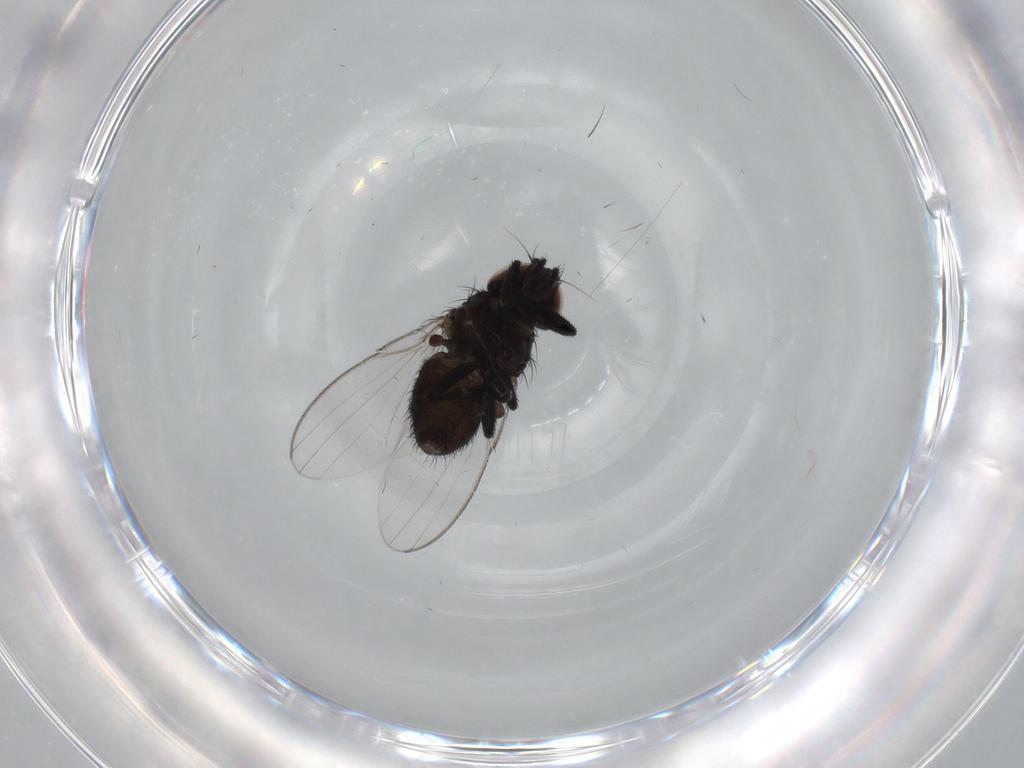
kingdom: Animalia
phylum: Arthropoda
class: Insecta
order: Diptera
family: Milichiidae
